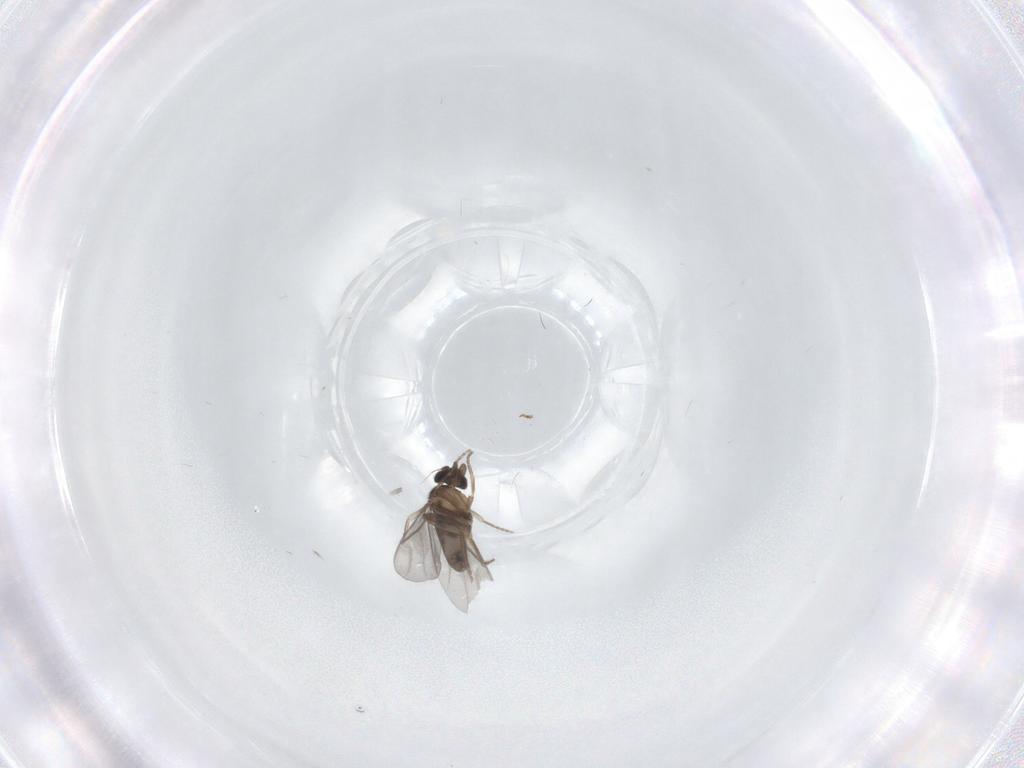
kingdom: Animalia
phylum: Arthropoda
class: Insecta
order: Diptera
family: Psychodidae
